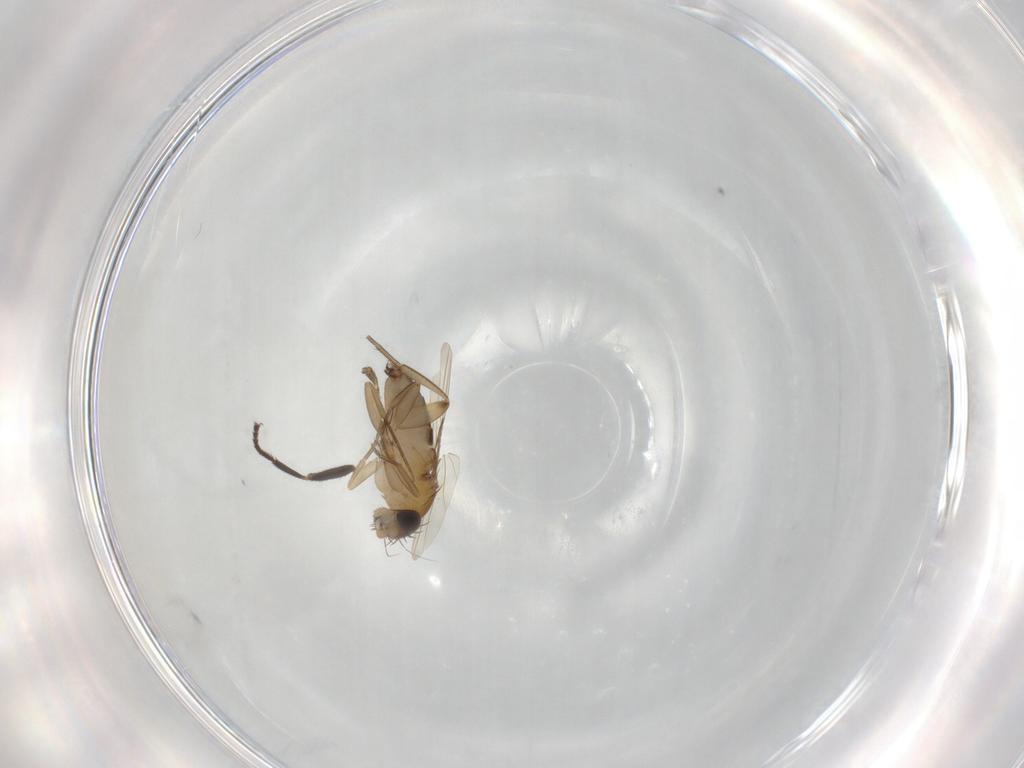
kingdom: Animalia
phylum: Arthropoda
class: Insecta
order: Diptera
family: Phoridae
